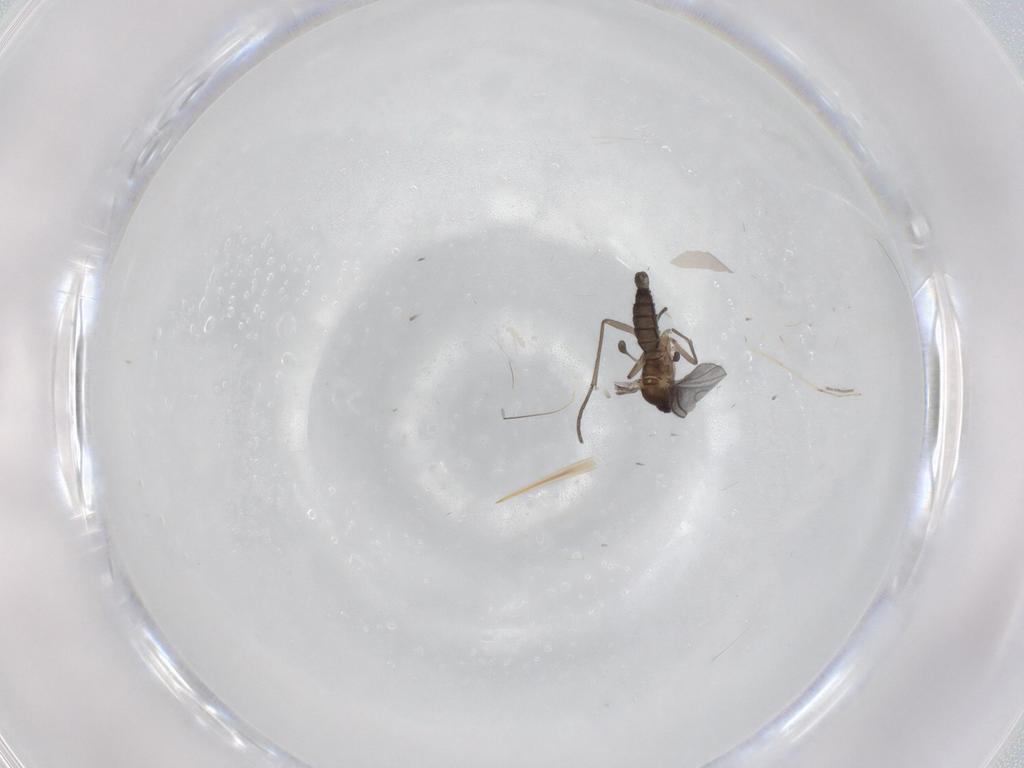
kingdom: Animalia
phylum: Arthropoda
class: Insecta
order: Diptera
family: Sciaridae
